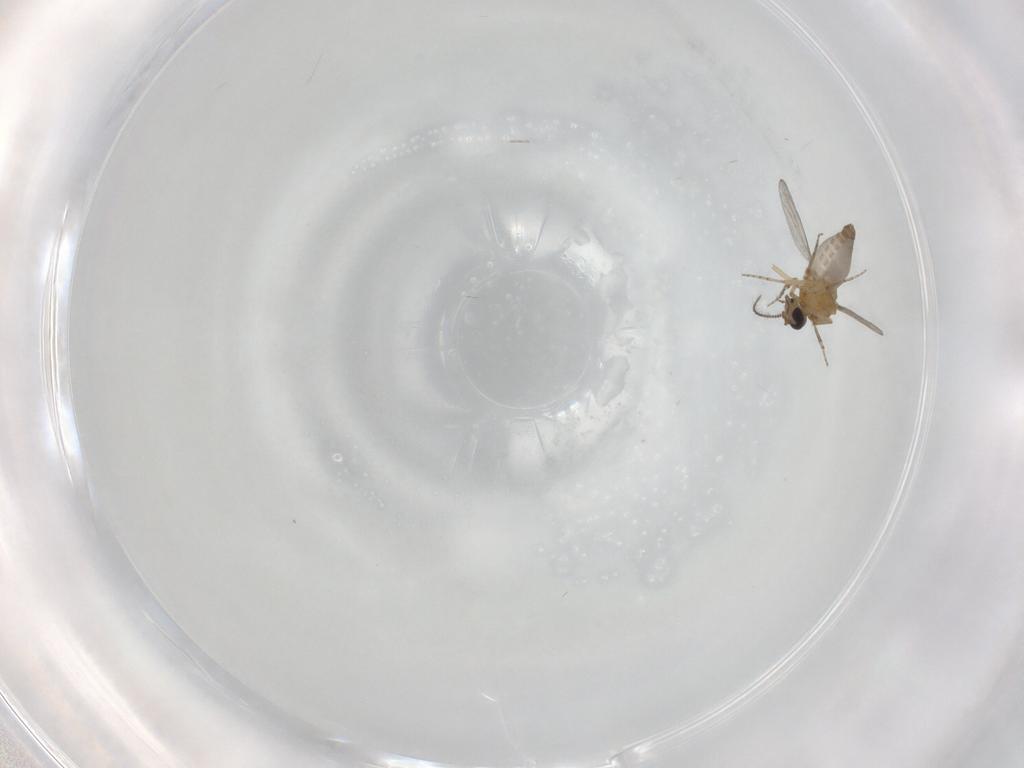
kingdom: Animalia
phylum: Arthropoda
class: Insecta
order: Diptera
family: Ceratopogonidae
